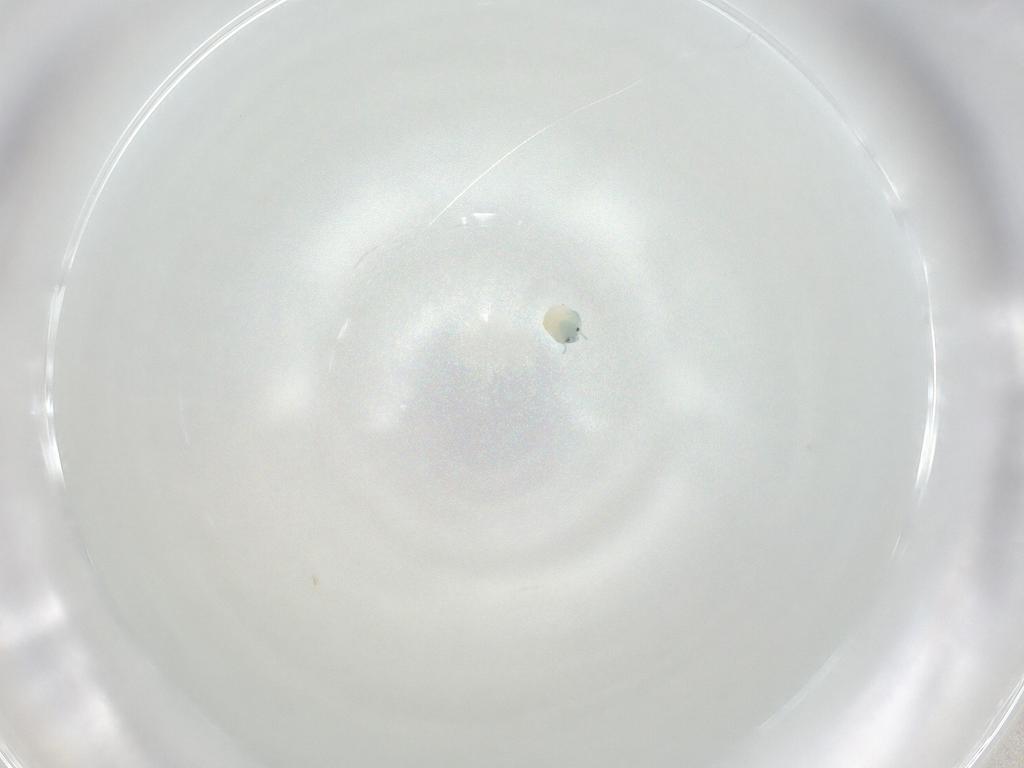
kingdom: Animalia
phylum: Arthropoda
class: Arachnida
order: Trombidiformes
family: Arrenuridae
